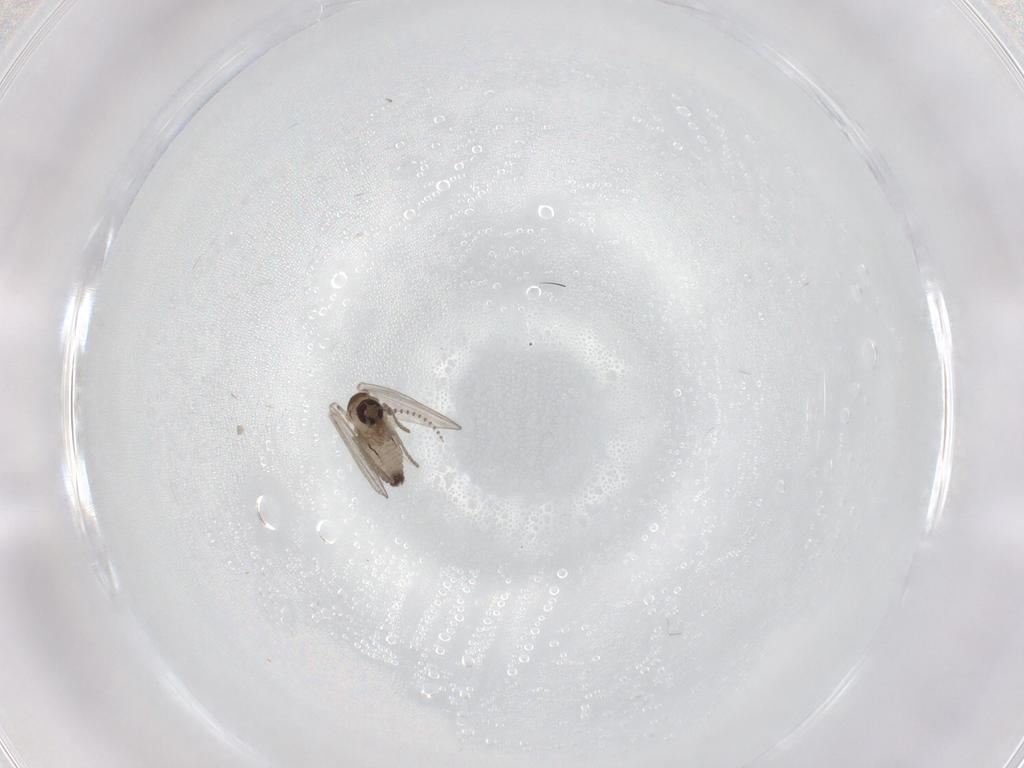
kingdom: Animalia
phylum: Arthropoda
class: Insecta
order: Diptera
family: Psychodidae
